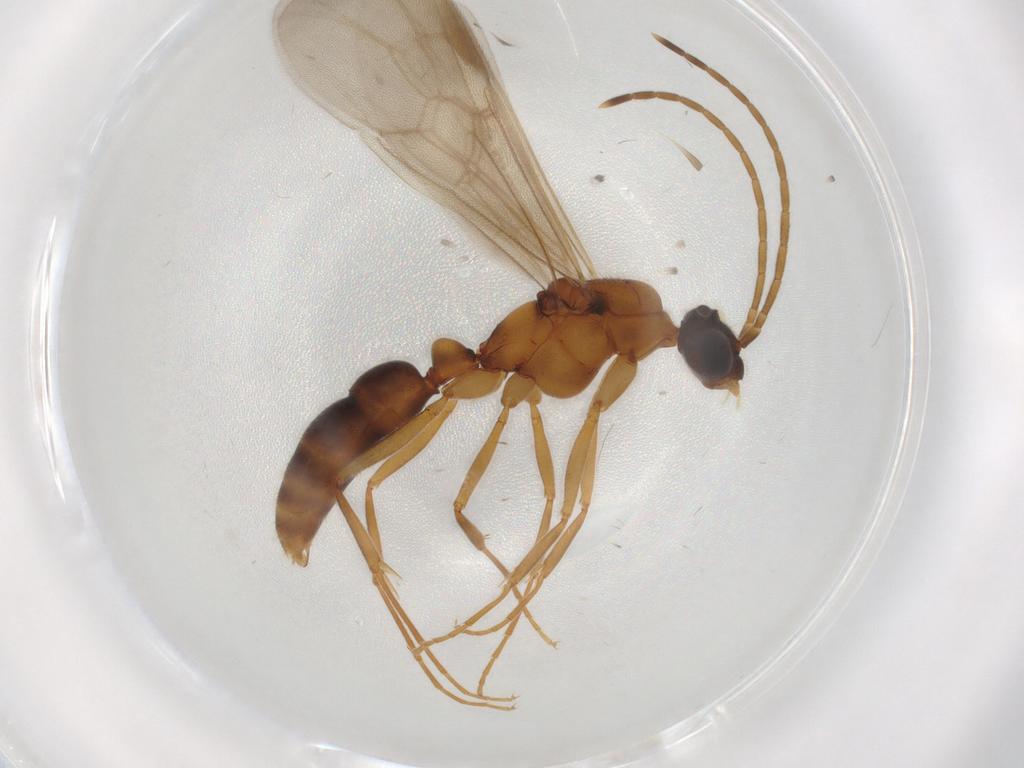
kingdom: Animalia
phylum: Arthropoda
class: Insecta
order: Hymenoptera
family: Formicidae
